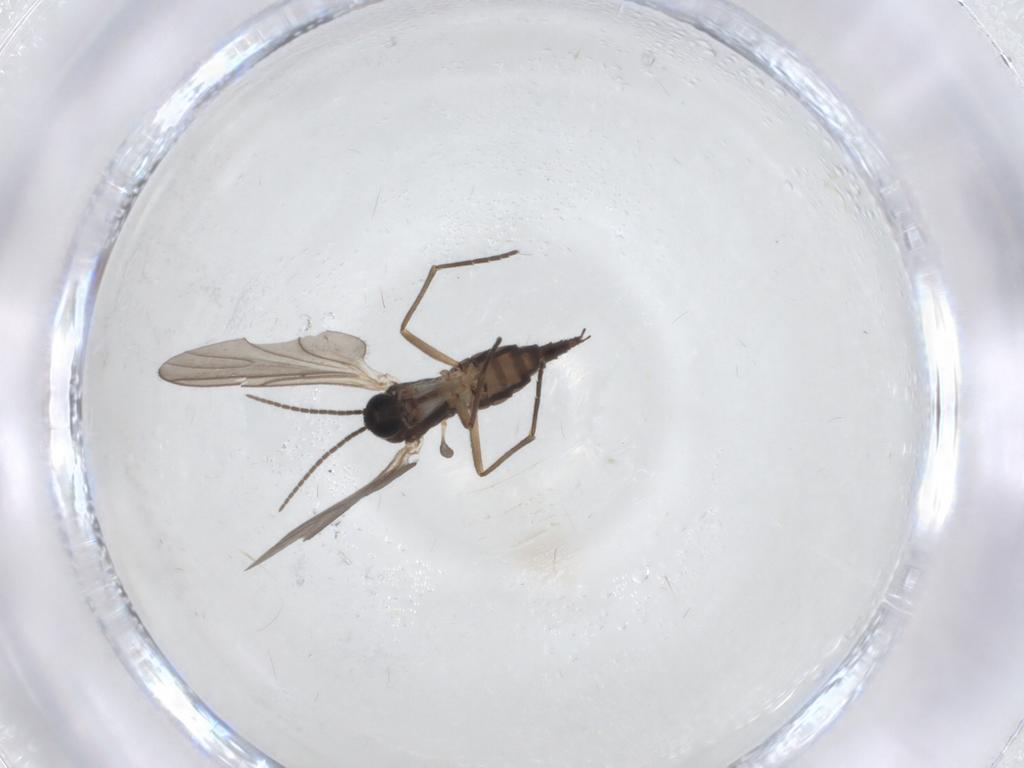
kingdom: Animalia
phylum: Arthropoda
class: Insecta
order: Diptera
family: Sciaridae
